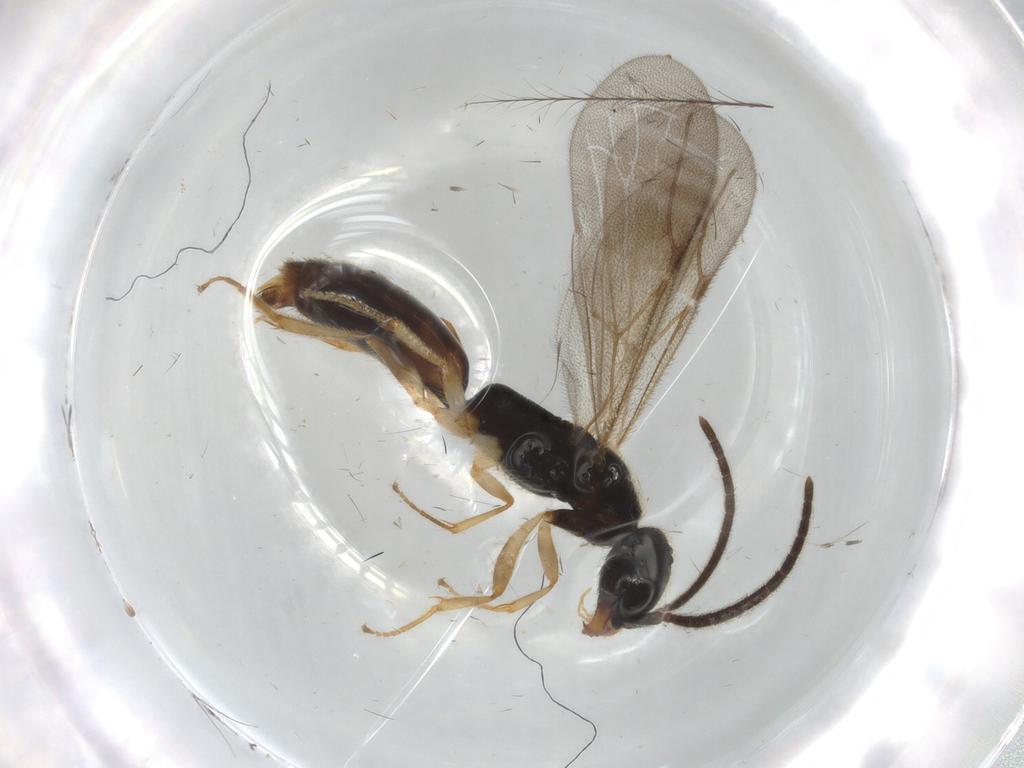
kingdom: Animalia
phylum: Arthropoda
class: Insecta
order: Hymenoptera
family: Bethylidae
